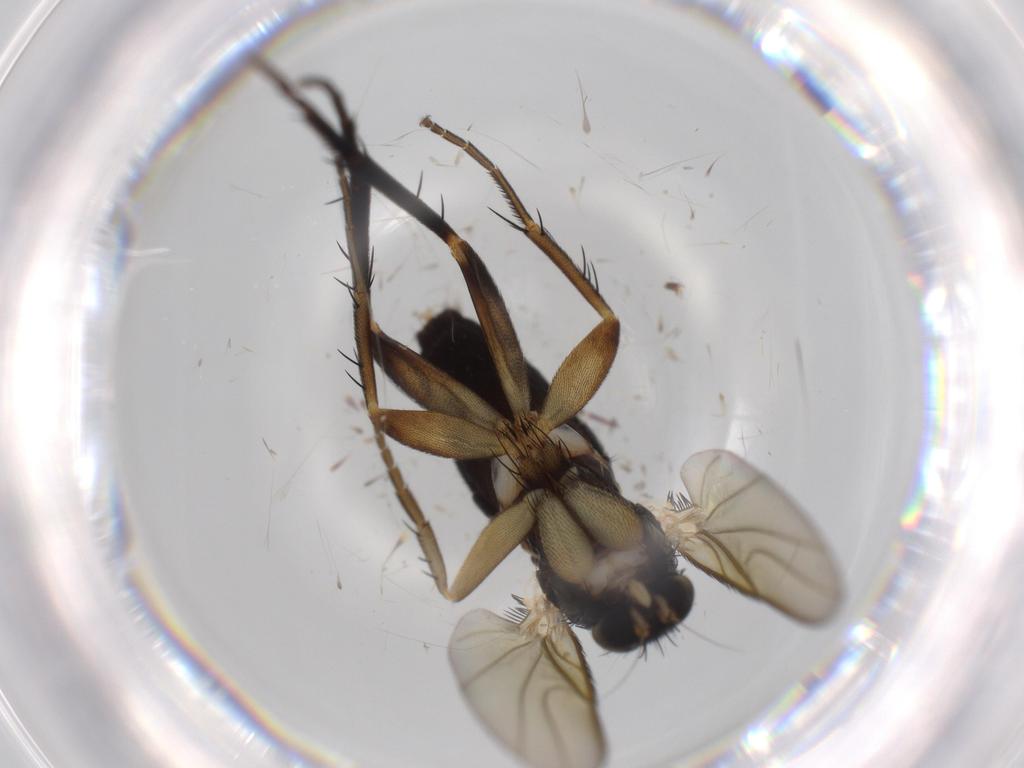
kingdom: Animalia
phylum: Arthropoda
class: Insecta
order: Diptera
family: Phoridae
